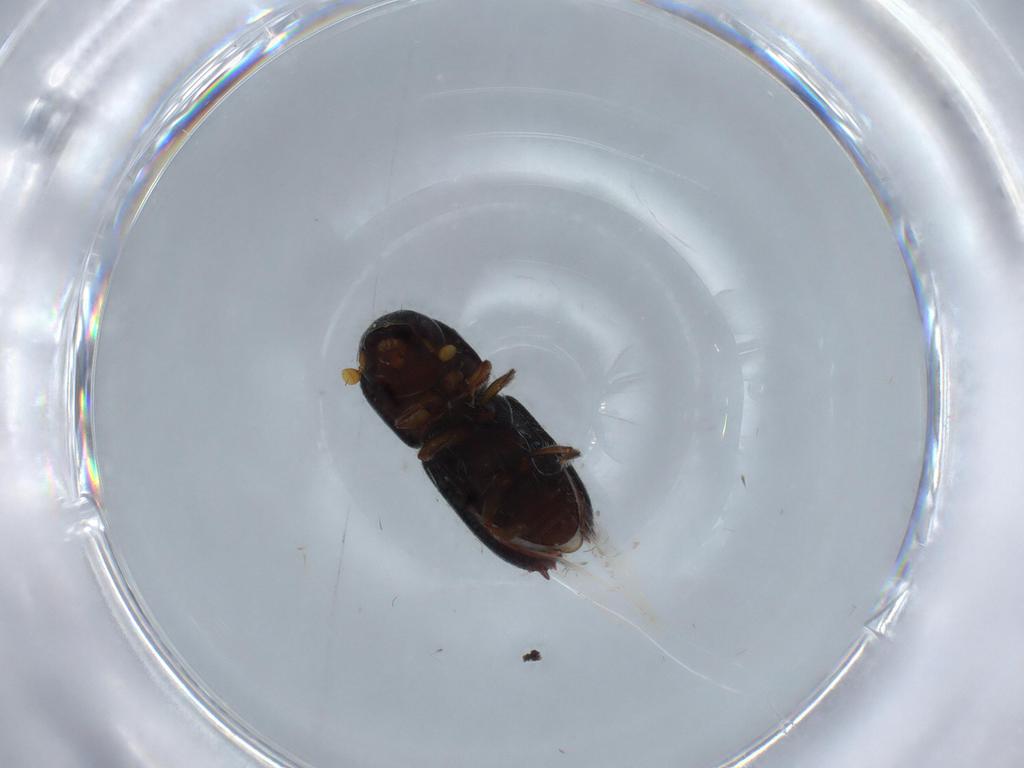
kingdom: Animalia
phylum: Arthropoda
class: Insecta
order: Coleoptera
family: Curculionidae
